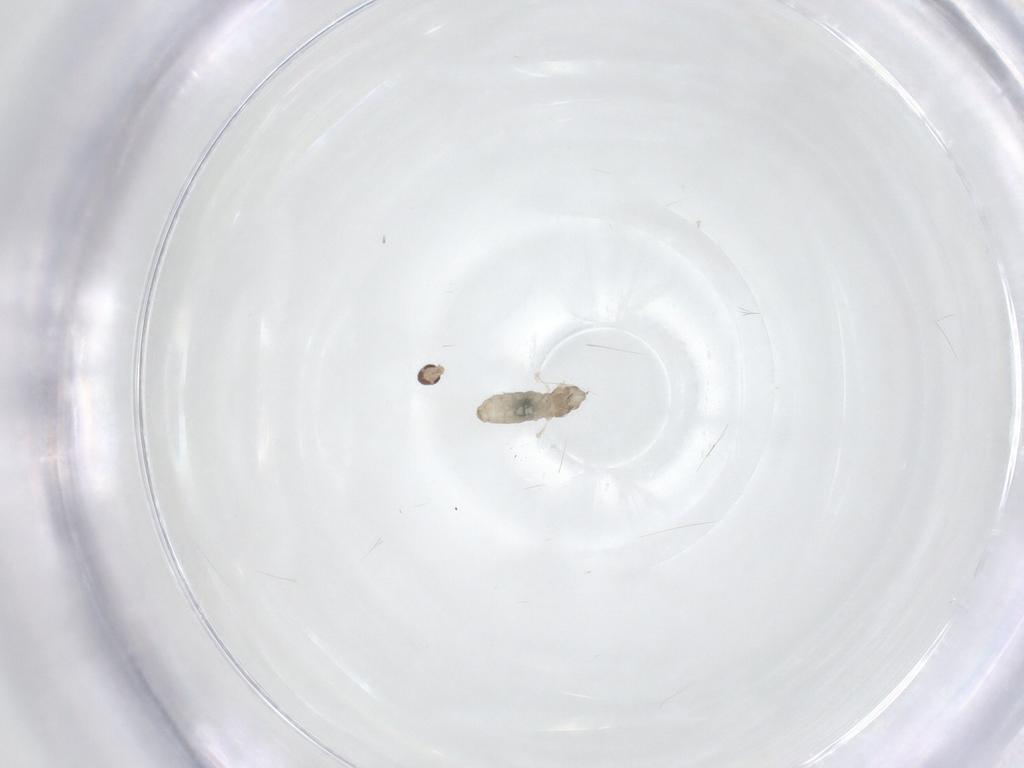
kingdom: Animalia
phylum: Arthropoda
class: Insecta
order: Diptera
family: Cecidomyiidae
